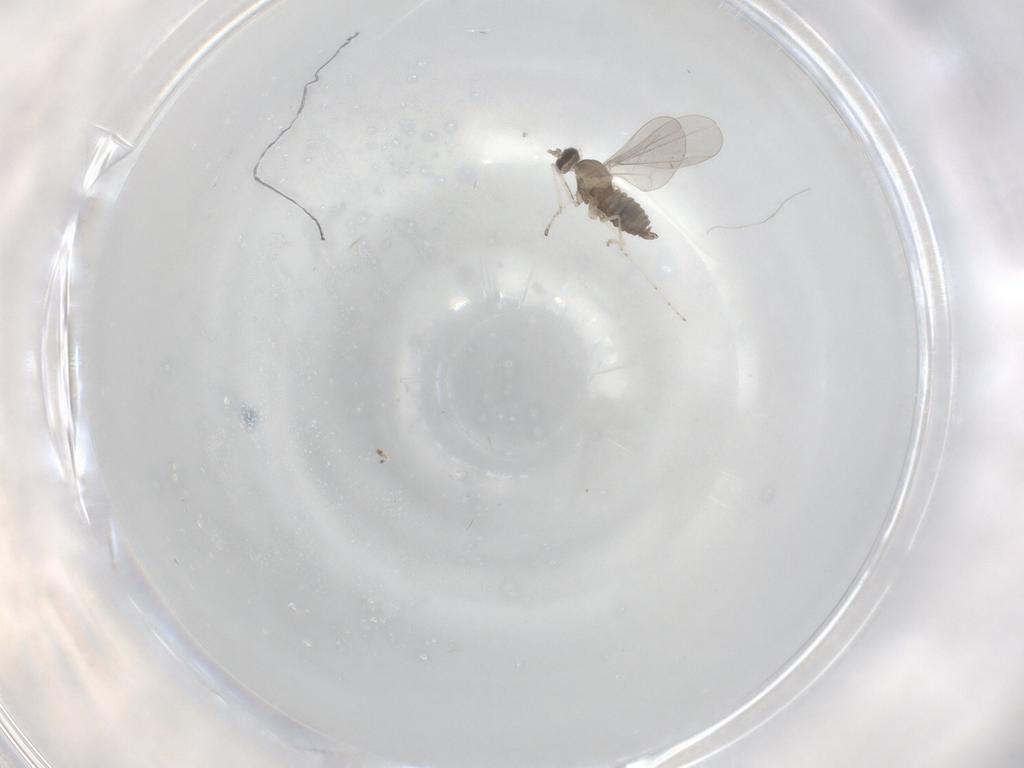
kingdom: Animalia
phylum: Arthropoda
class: Insecta
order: Diptera
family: Cecidomyiidae
